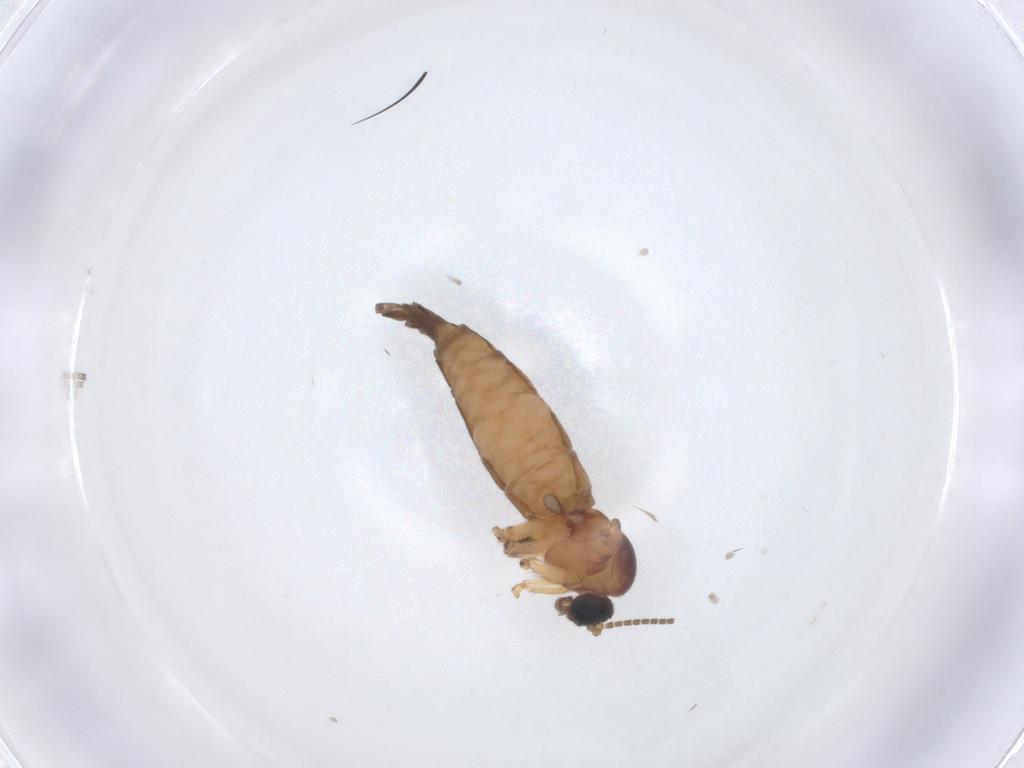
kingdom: Animalia
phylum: Arthropoda
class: Insecta
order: Diptera
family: Sciaridae
